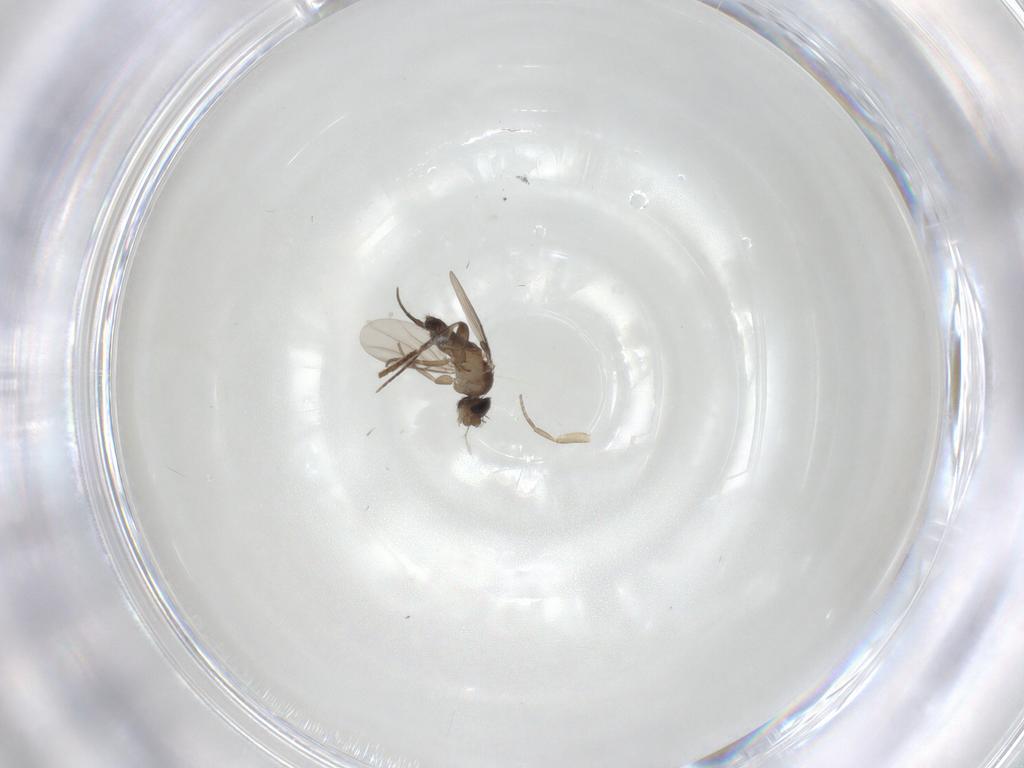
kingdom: Animalia
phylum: Arthropoda
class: Insecta
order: Diptera
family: Phoridae
